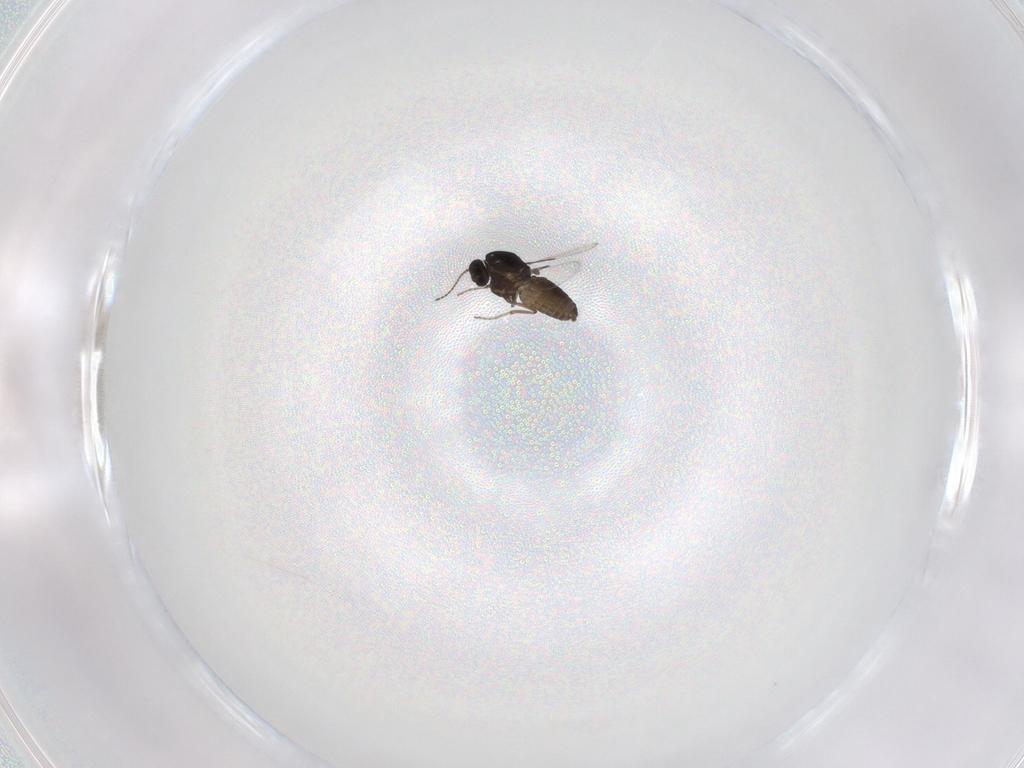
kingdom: Animalia
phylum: Arthropoda
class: Insecta
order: Diptera
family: Ceratopogonidae
